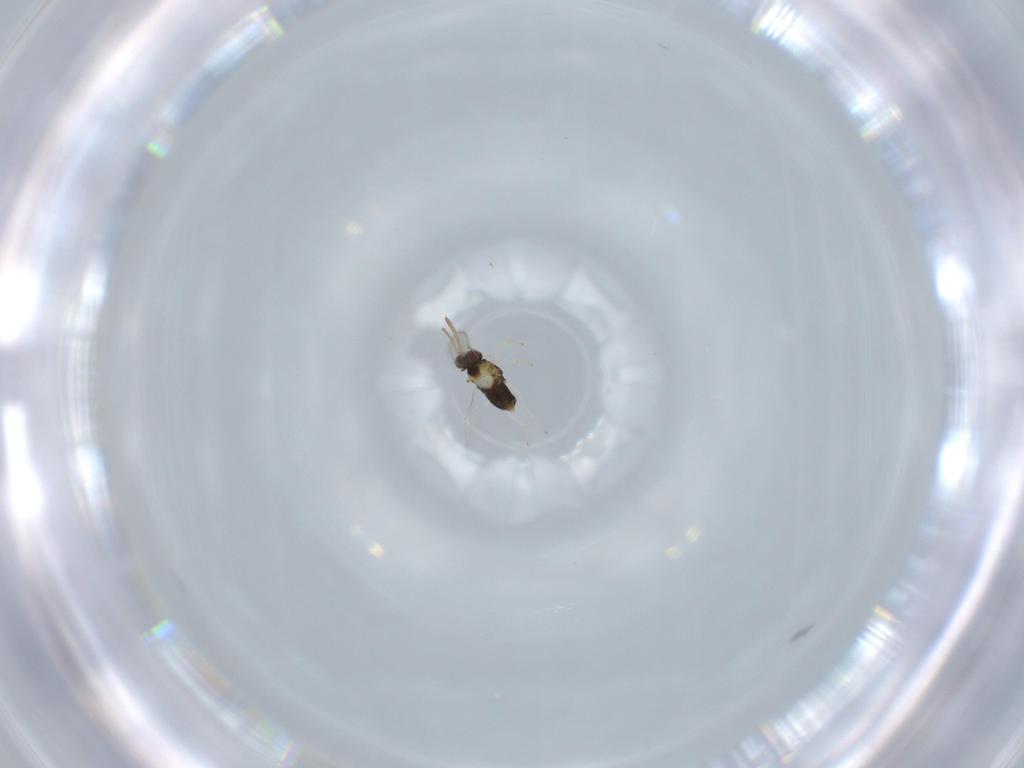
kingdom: Animalia
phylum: Arthropoda
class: Insecta
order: Hymenoptera
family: Aphelinidae
